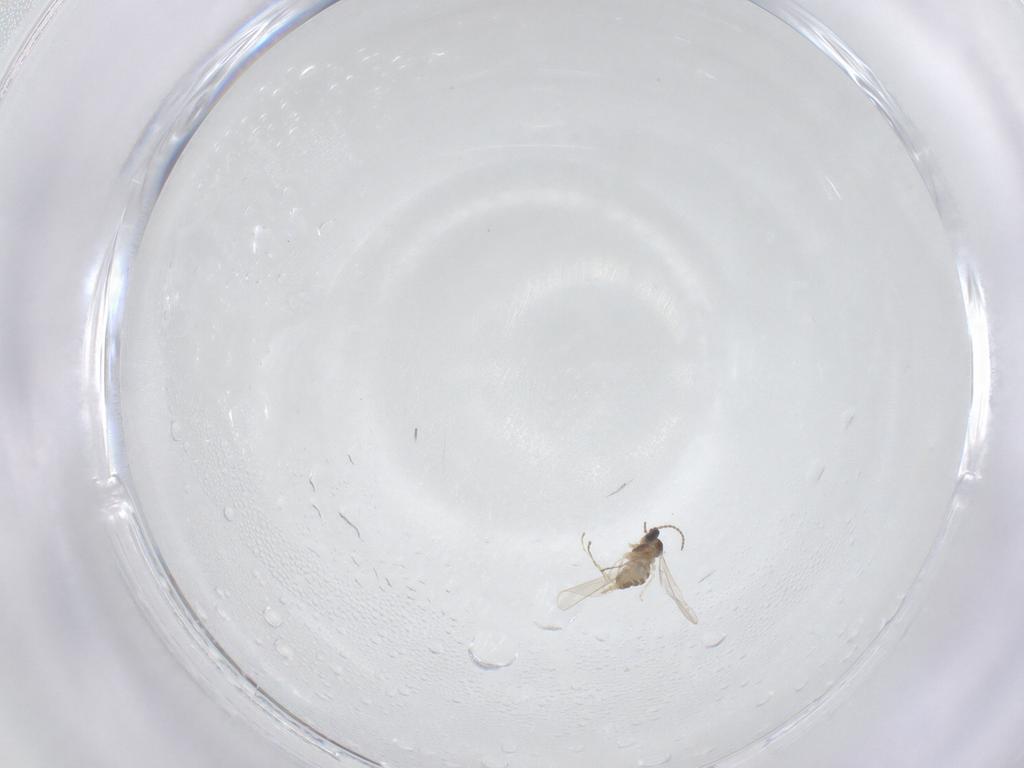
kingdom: Animalia
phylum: Arthropoda
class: Insecta
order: Diptera
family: Cecidomyiidae
